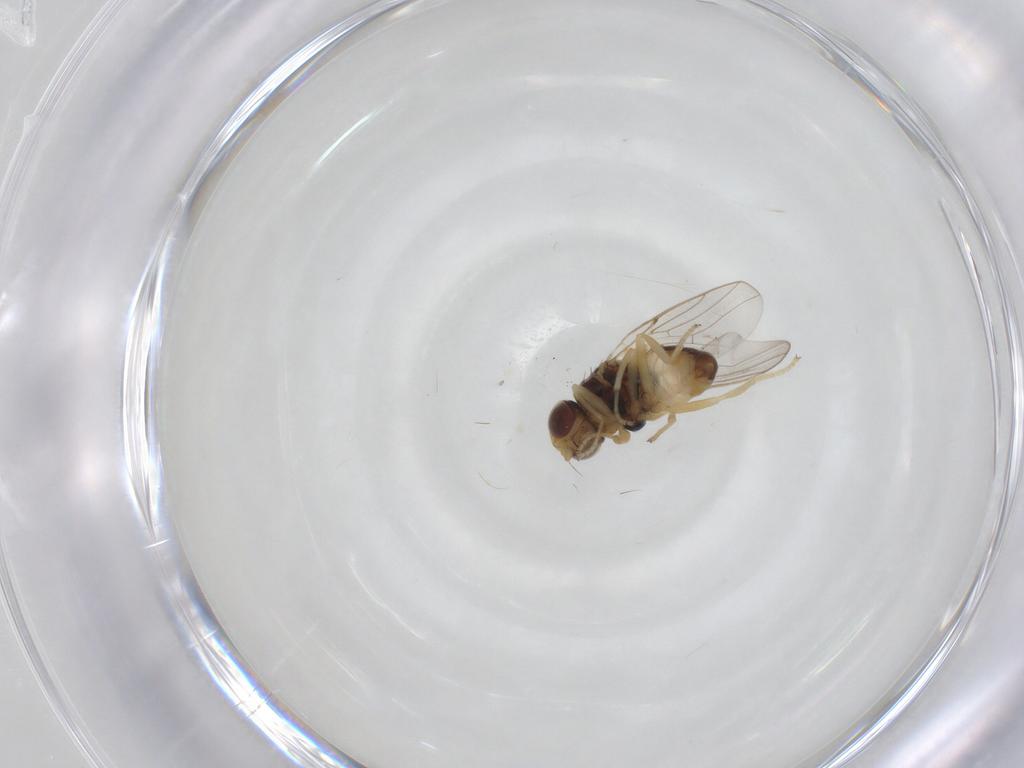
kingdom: Animalia
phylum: Arthropoda
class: Insecta
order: Diptera
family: Chloropidae
